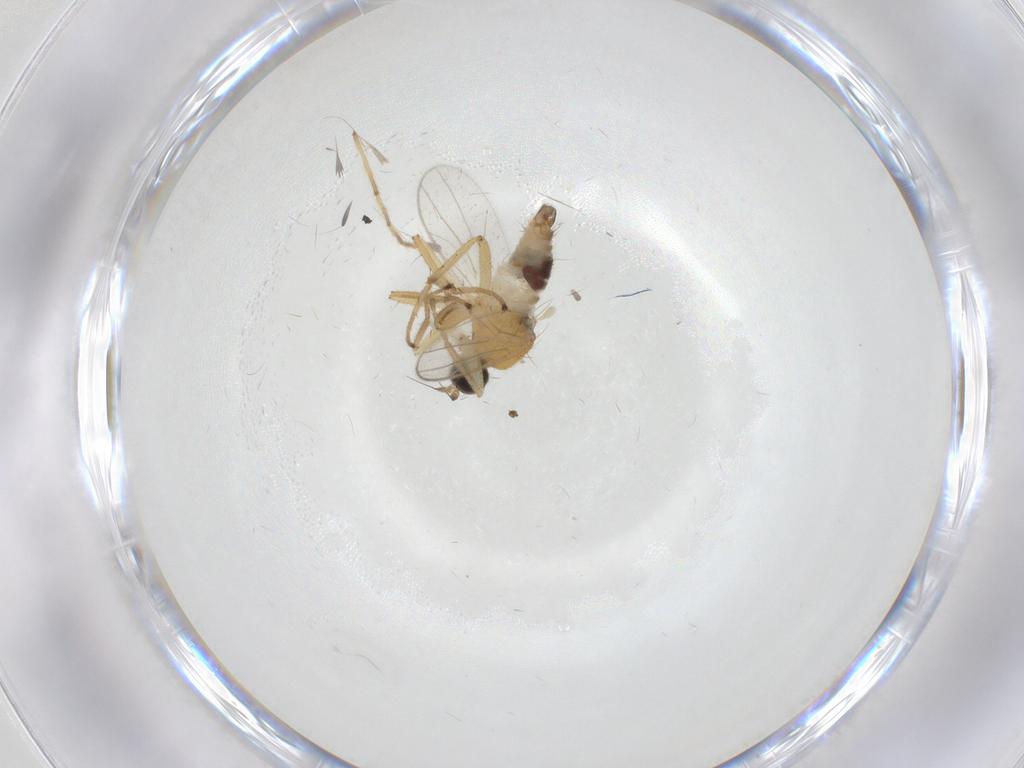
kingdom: Animalia
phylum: Arthropoda
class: Insecta
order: Diptera
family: Hybotidae
